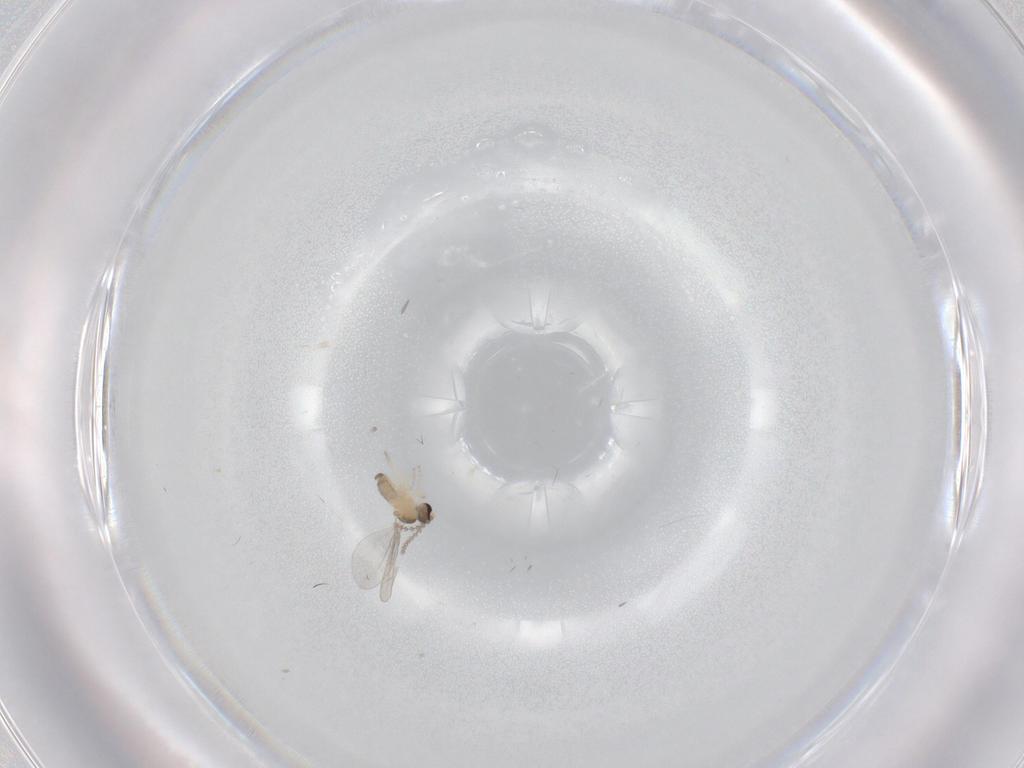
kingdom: Animalia
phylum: Arthropoda
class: Insecta
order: Diptera
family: Cecidomyiidae
